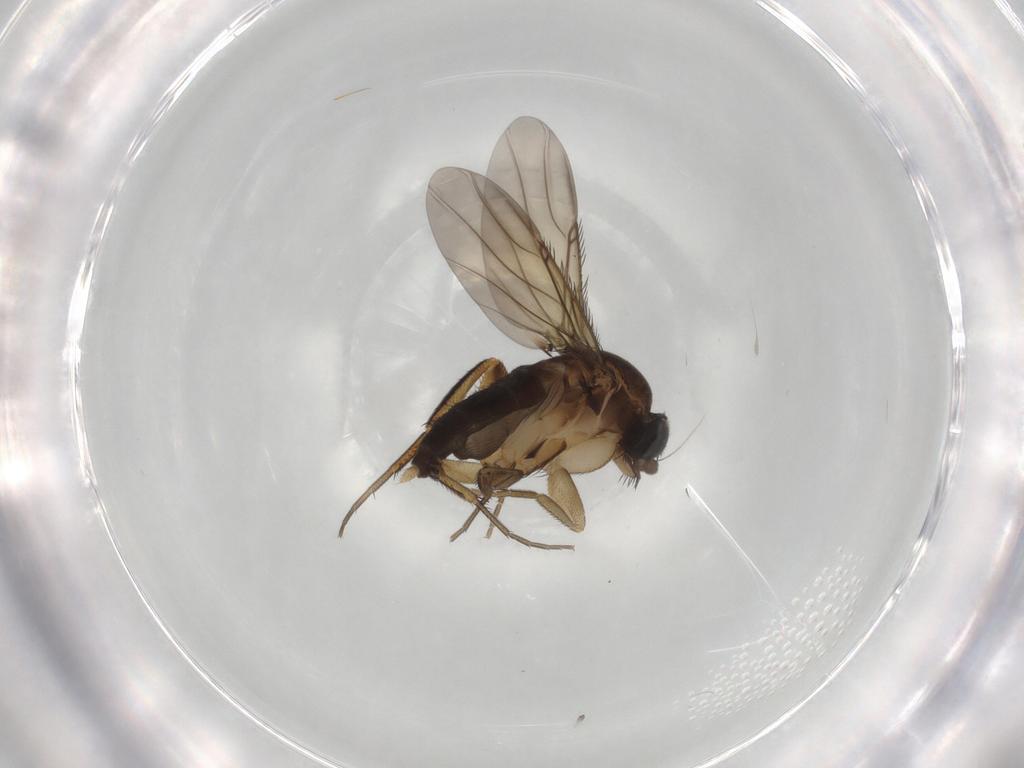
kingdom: Animalia
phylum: Arthropoda
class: Insecta
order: Diptera
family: Phoridae
